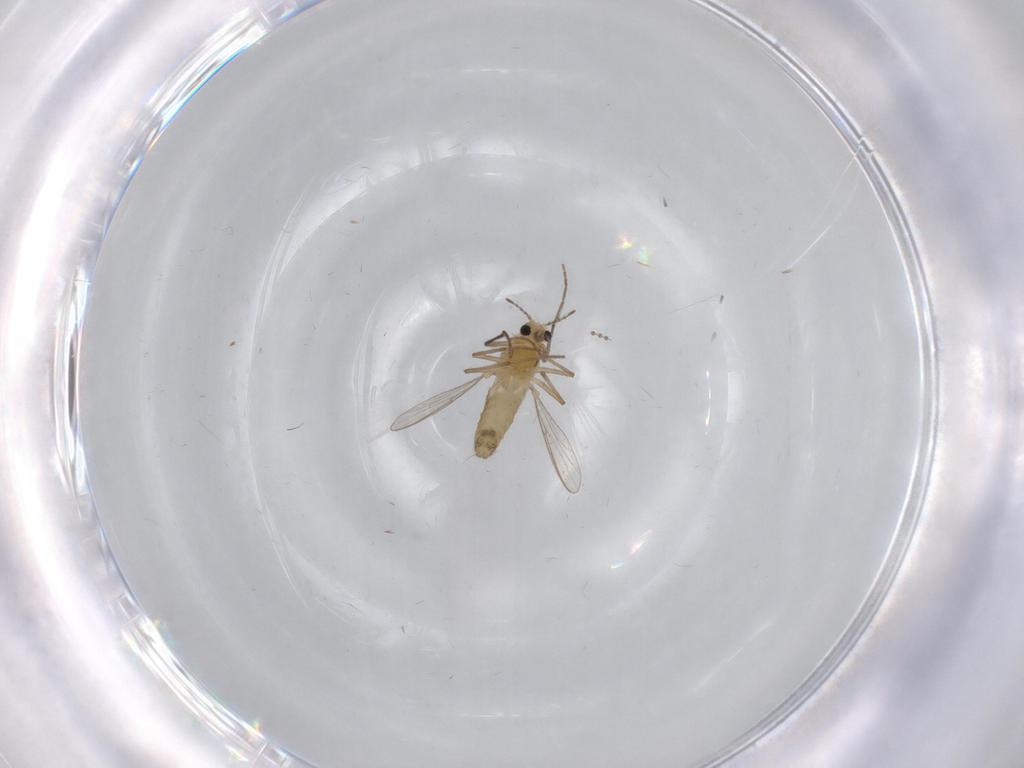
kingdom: Animalia
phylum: Arthropoda
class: Insecta
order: Diptera
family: Chironomidae
